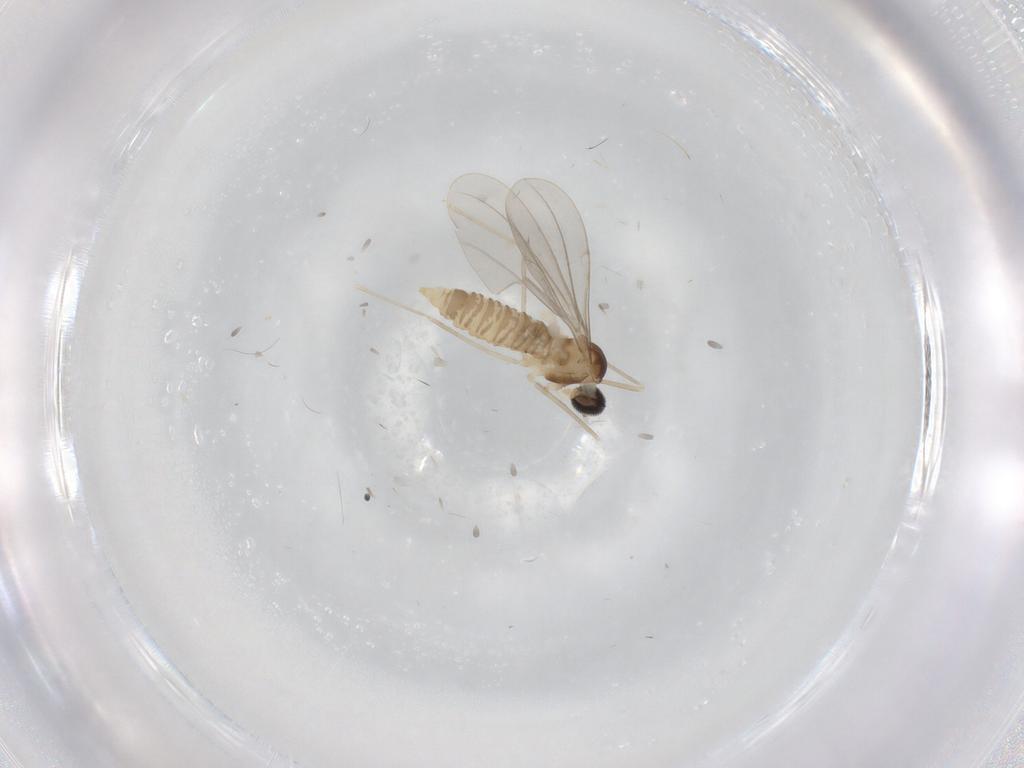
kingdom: Animalia
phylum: Arthropoda
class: Insecta
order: Diptera
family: Cecidomyiidae
